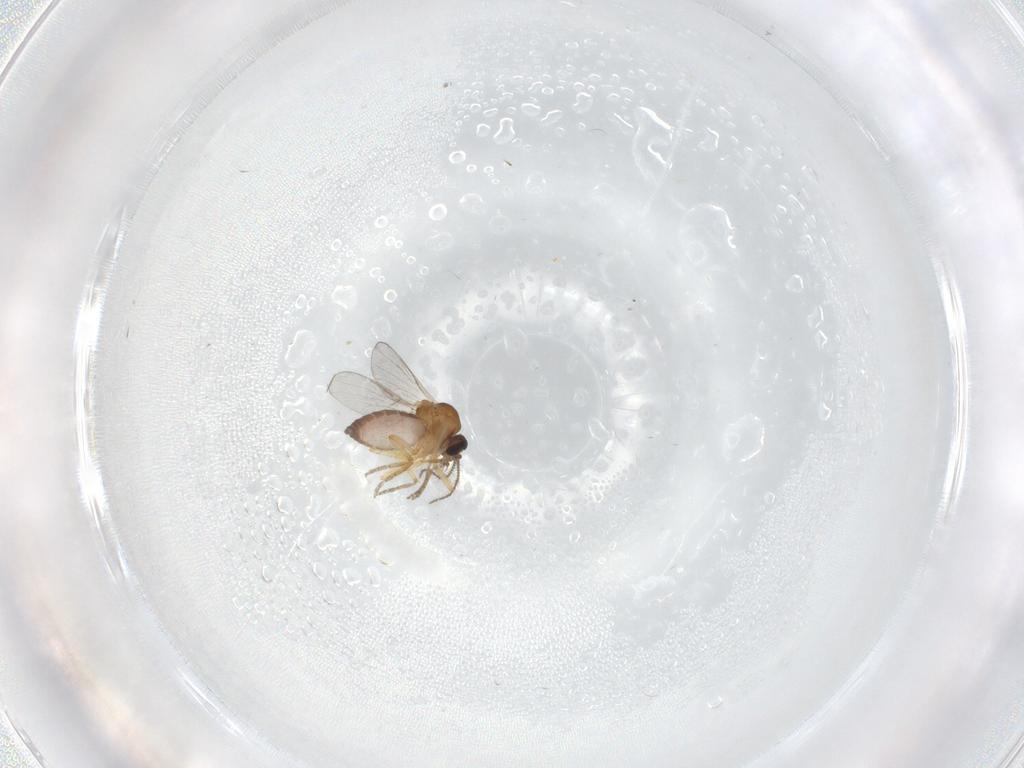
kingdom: Animalia
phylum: Arthropoda
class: Insecta
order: Diptera
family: Ceratopogonidae
